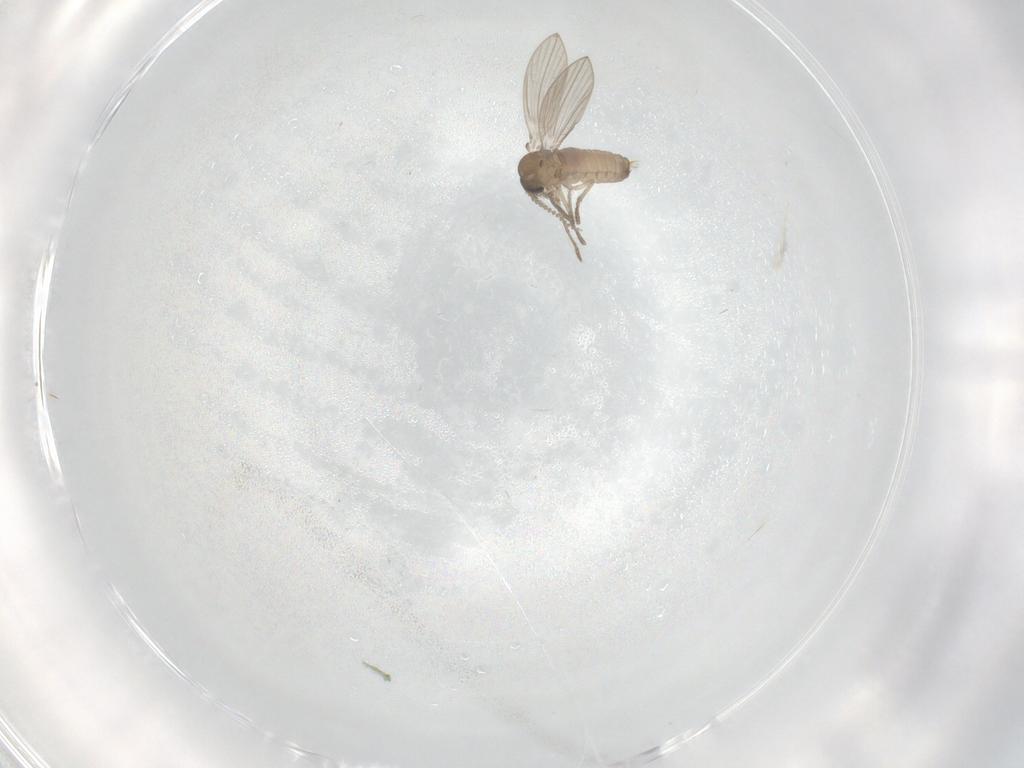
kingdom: Animalia
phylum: Arthropoda
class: Insecta
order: Diptera
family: Psychodidae
